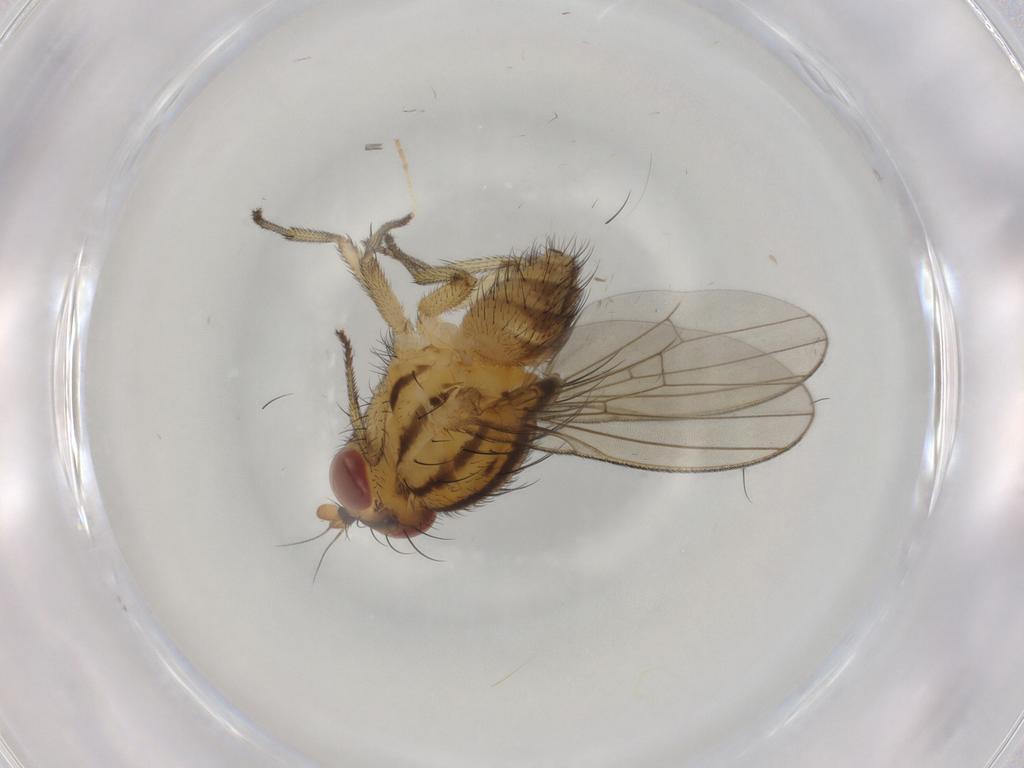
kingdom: Animalia
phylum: Arthropoda
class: Insecta
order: Diptera
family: Drosophilidae
